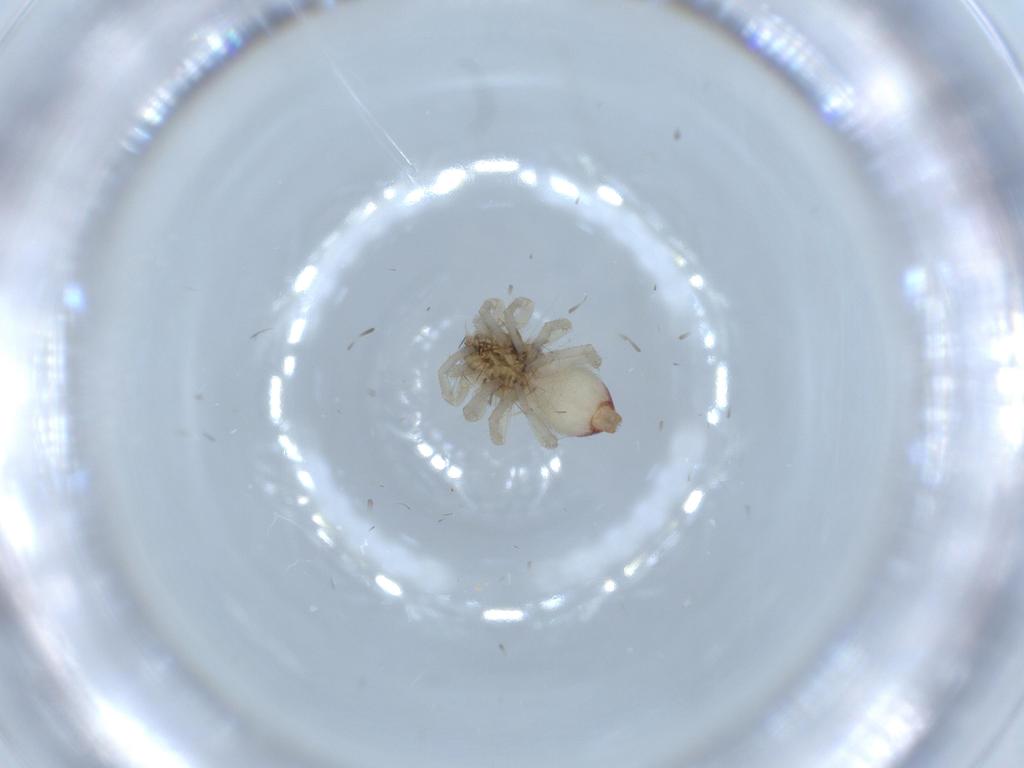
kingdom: Animalia
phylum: Arthropoda
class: Arachnida
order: Araneae
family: Clubionidae
